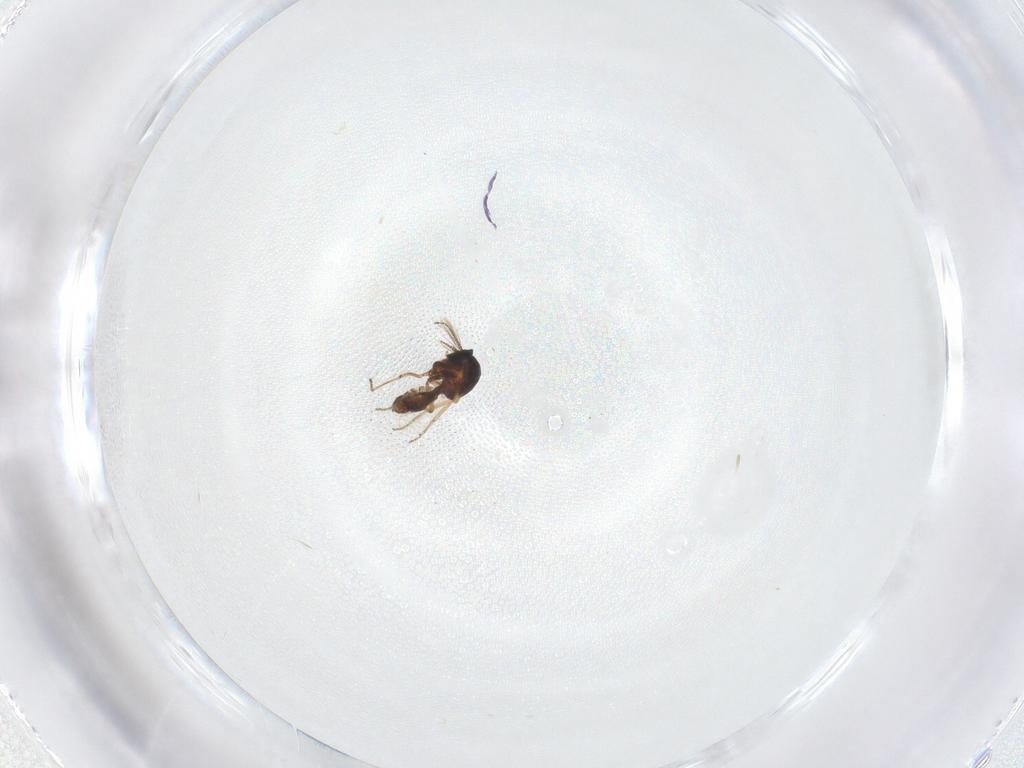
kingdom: Animalia
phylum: Arthropoda
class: Insecta
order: Diptera
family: Ceratopogonidae
